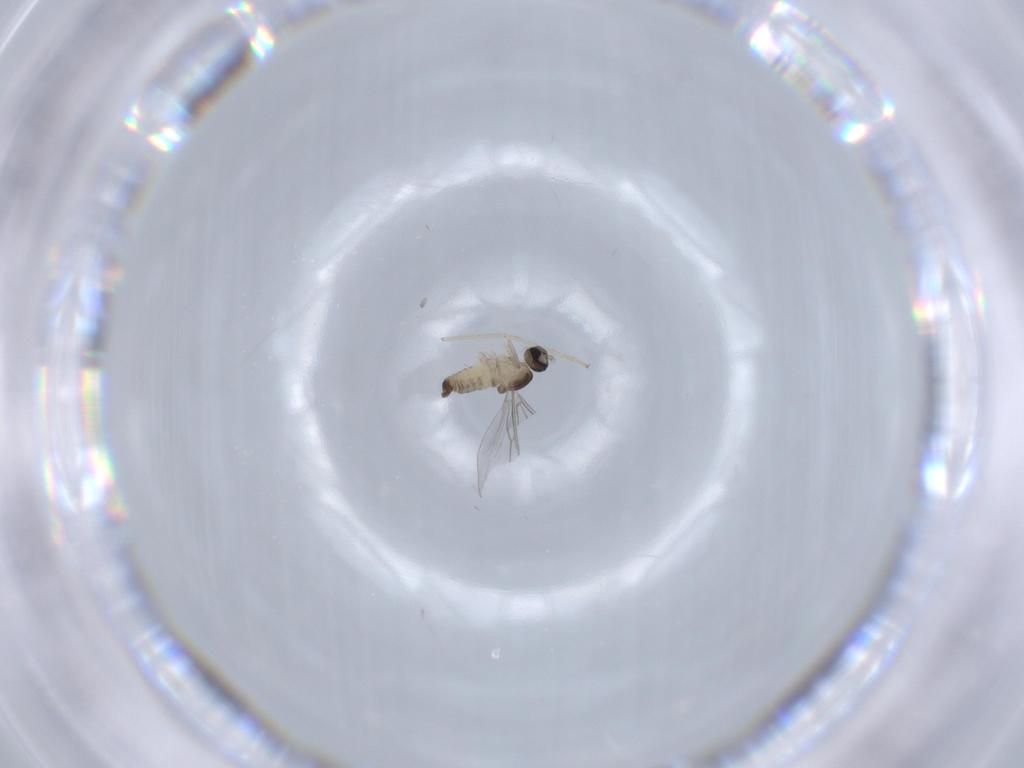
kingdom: Animalia
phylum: Arthropoda
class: Insecta
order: Diptera
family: Cecidomyiidae
